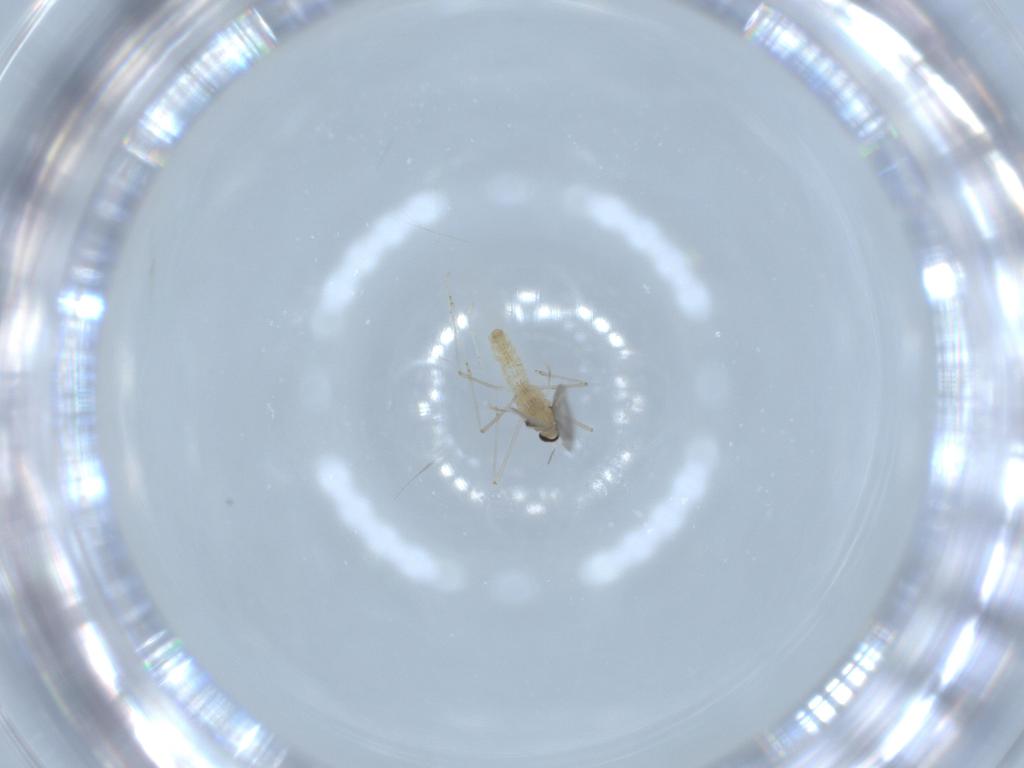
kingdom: Animalia
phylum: Arthropoda
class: Insecta
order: Diptera
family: Cecidomyiidae
